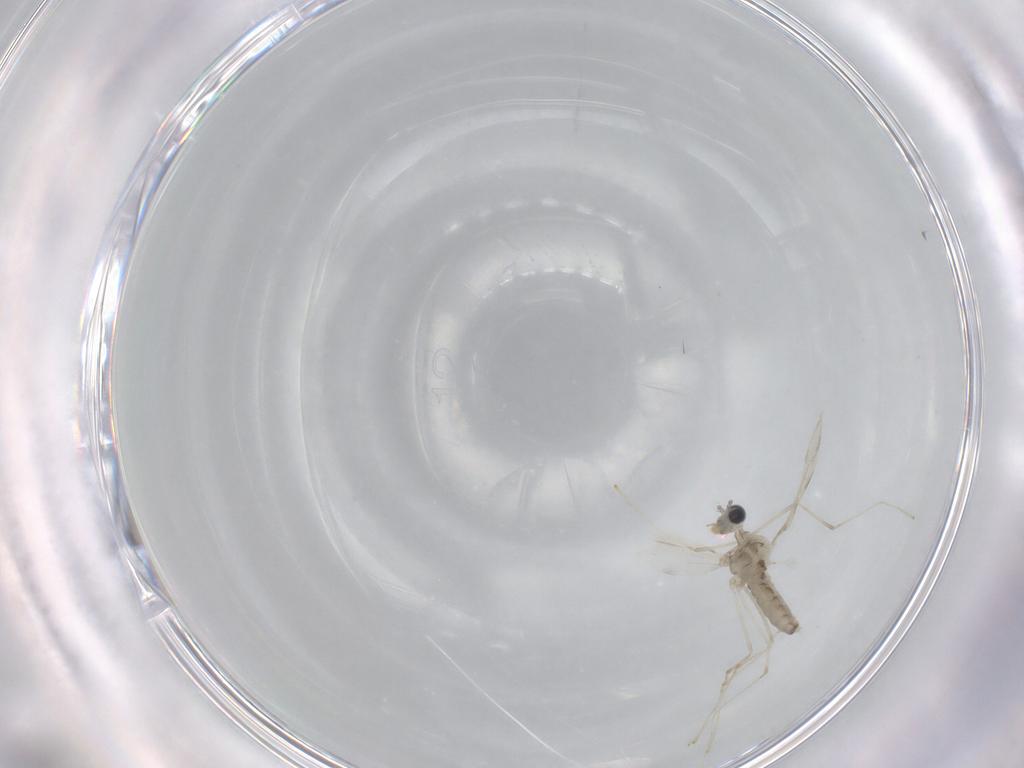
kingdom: Animalia
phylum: Arthropoda
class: Insecta
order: Diptera
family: Cecidomyiidae
